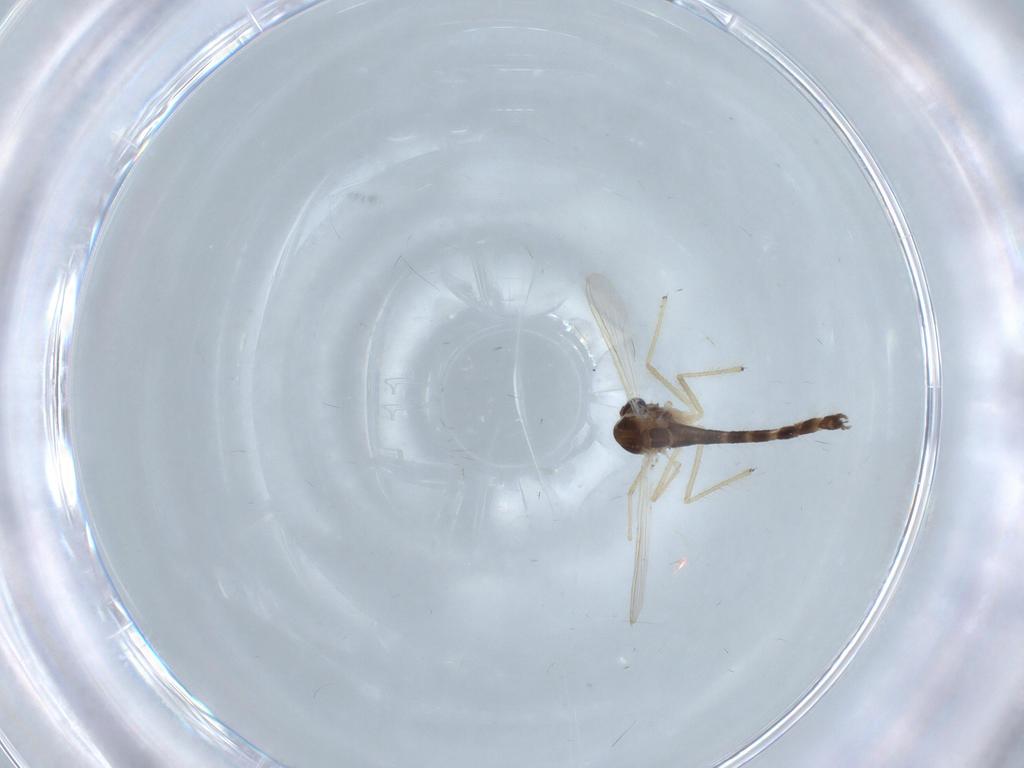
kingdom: Animalia
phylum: Arthropoda
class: Insecta
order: Diptera
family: Chironomidae
